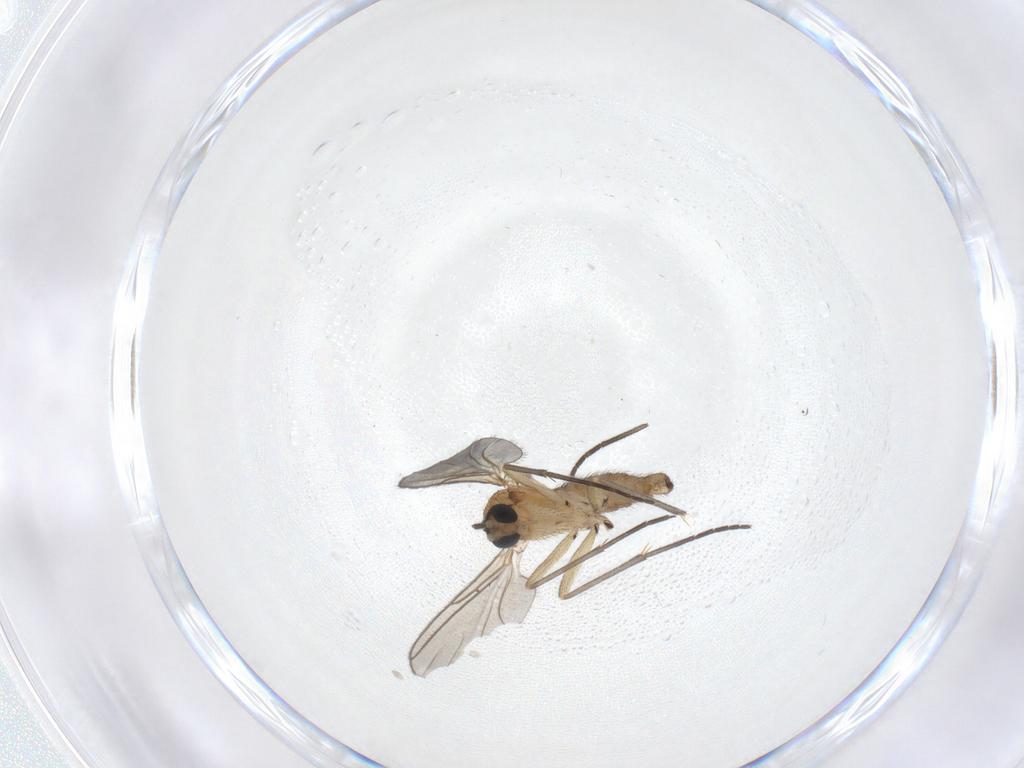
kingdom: Animalia
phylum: Arthropoda
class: Insecta
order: Diptera
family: Sciaridae
